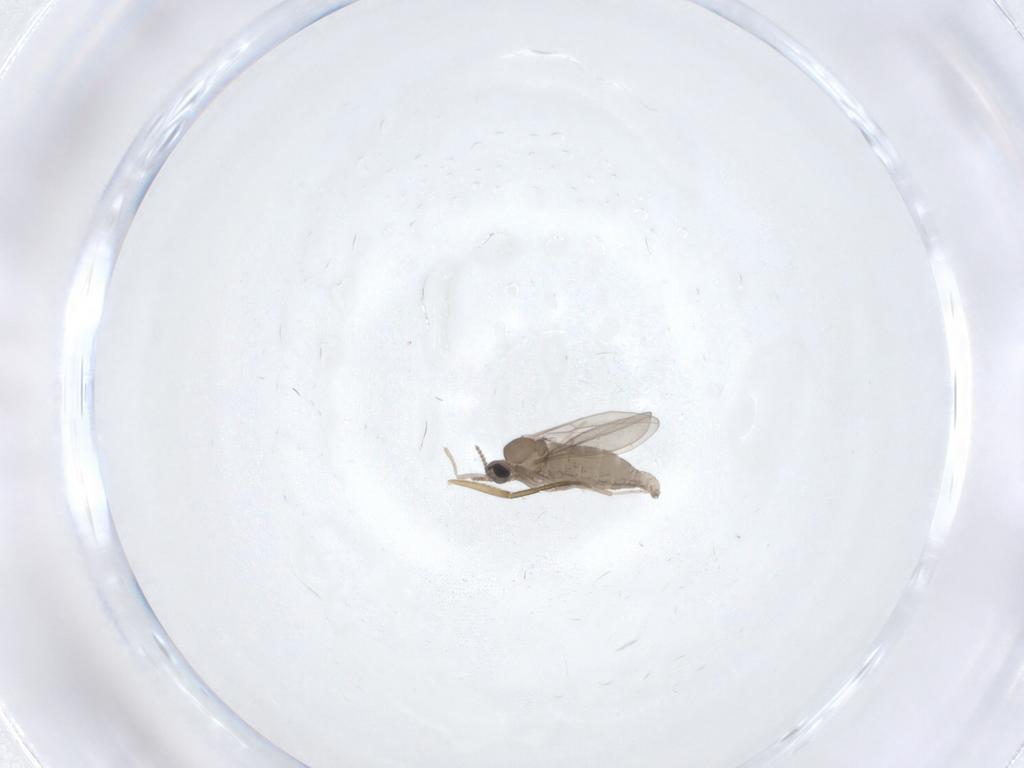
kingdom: Animalia
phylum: Arthropoda
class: Insecta
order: Diptera
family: Cecidomyiidae
